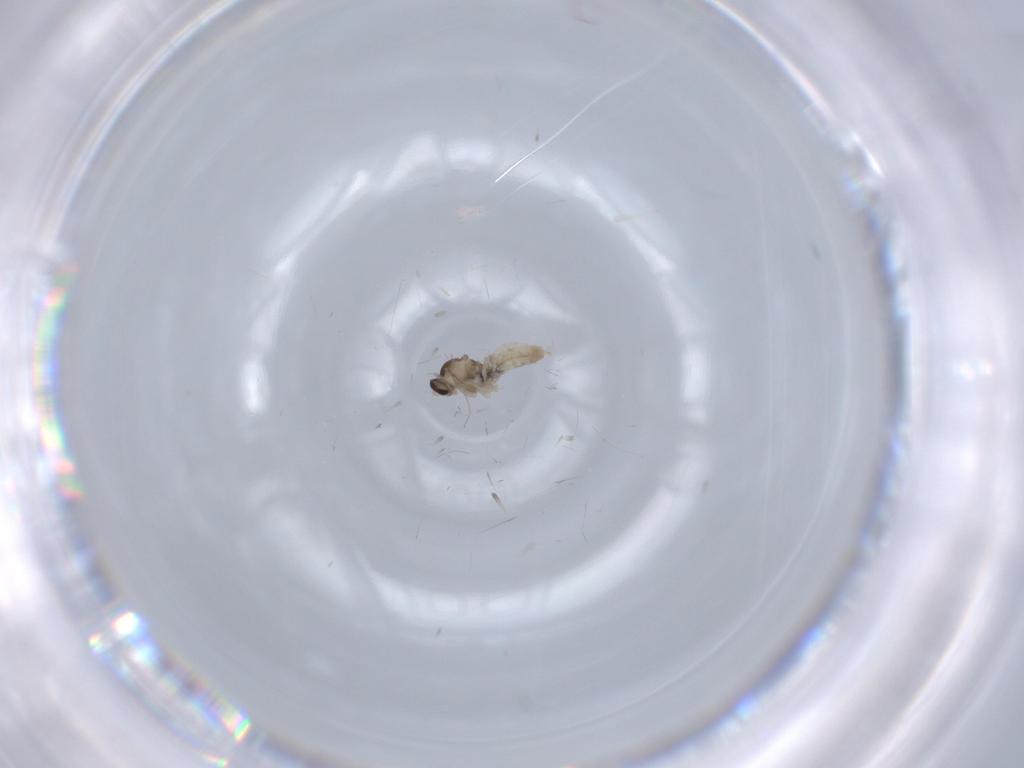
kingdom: Animalia
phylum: Arthropoda
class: Insecta
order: Diptera
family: Cecidomyiidae
